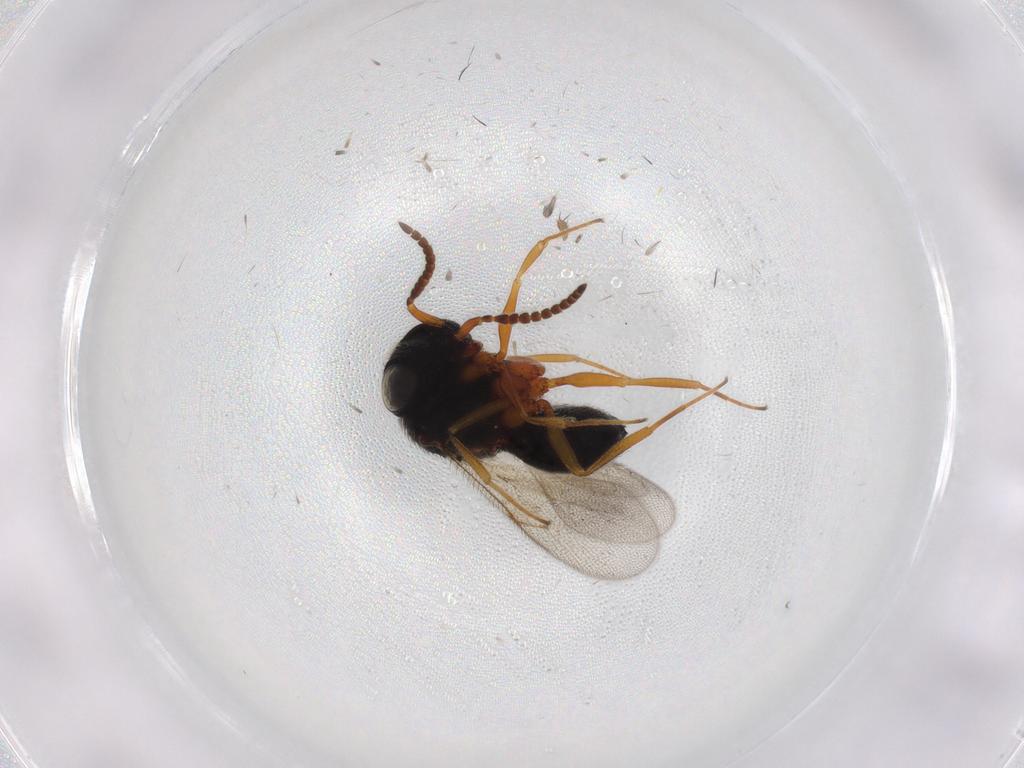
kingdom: Animalia
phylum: Arthropoda
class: Insecta
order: Hymenoptera
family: Scelionidae
